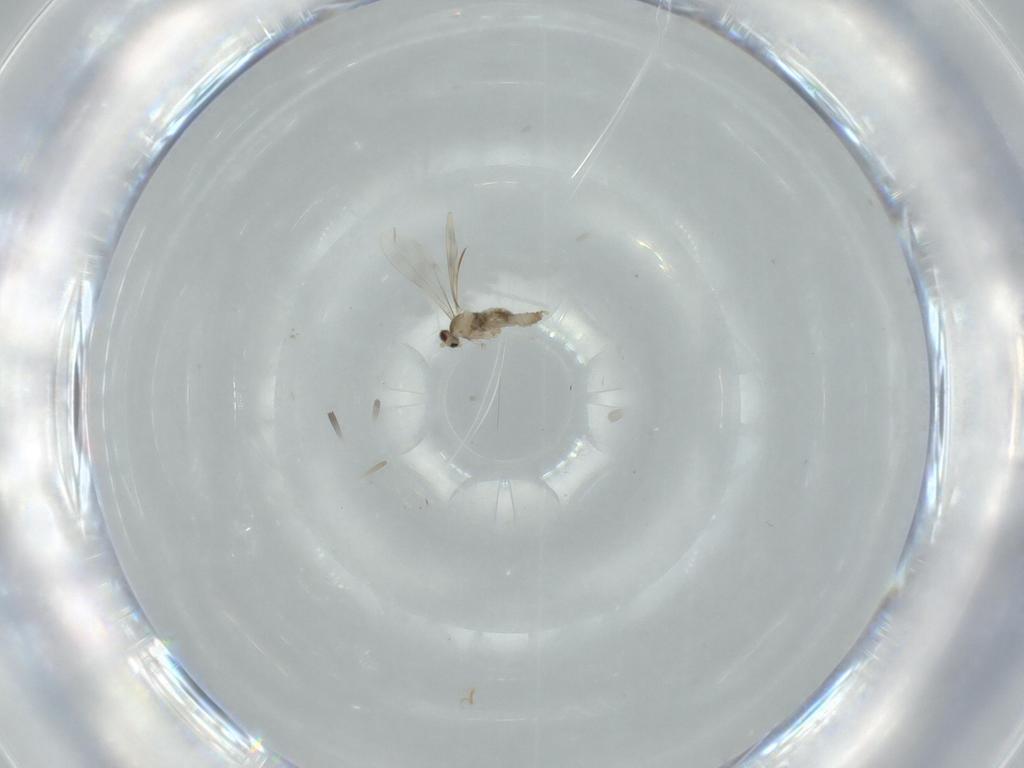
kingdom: Animalia
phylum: Arthropoda
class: Insecta
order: Diptera
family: Cecidomyiidae
